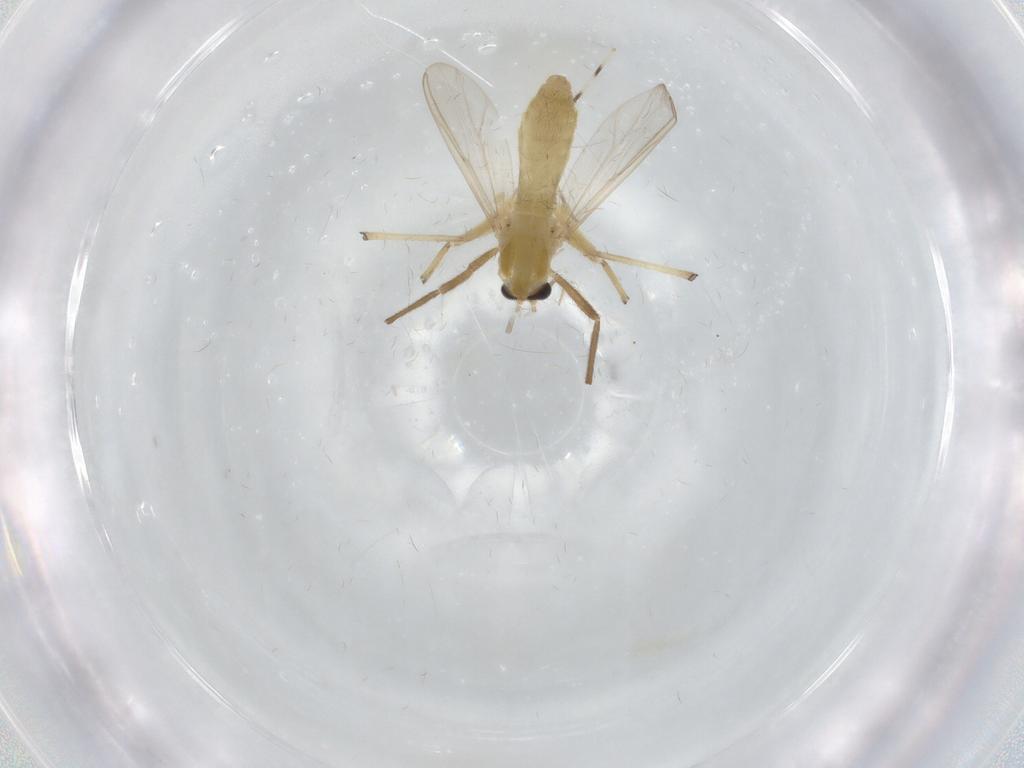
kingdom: Animalia
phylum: Arthropoda
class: Insecta
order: Diptera
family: Chironomidae
